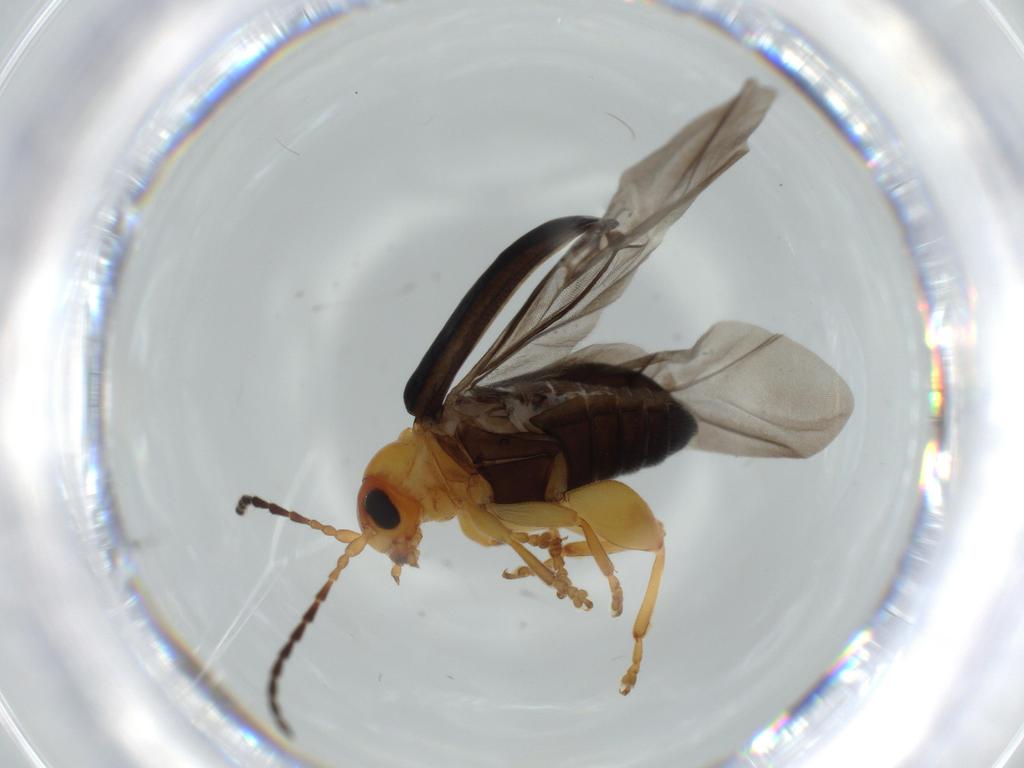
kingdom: Animalia
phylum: Arthropoda
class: Insecta
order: Coleoptera
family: Chrysomelidae
